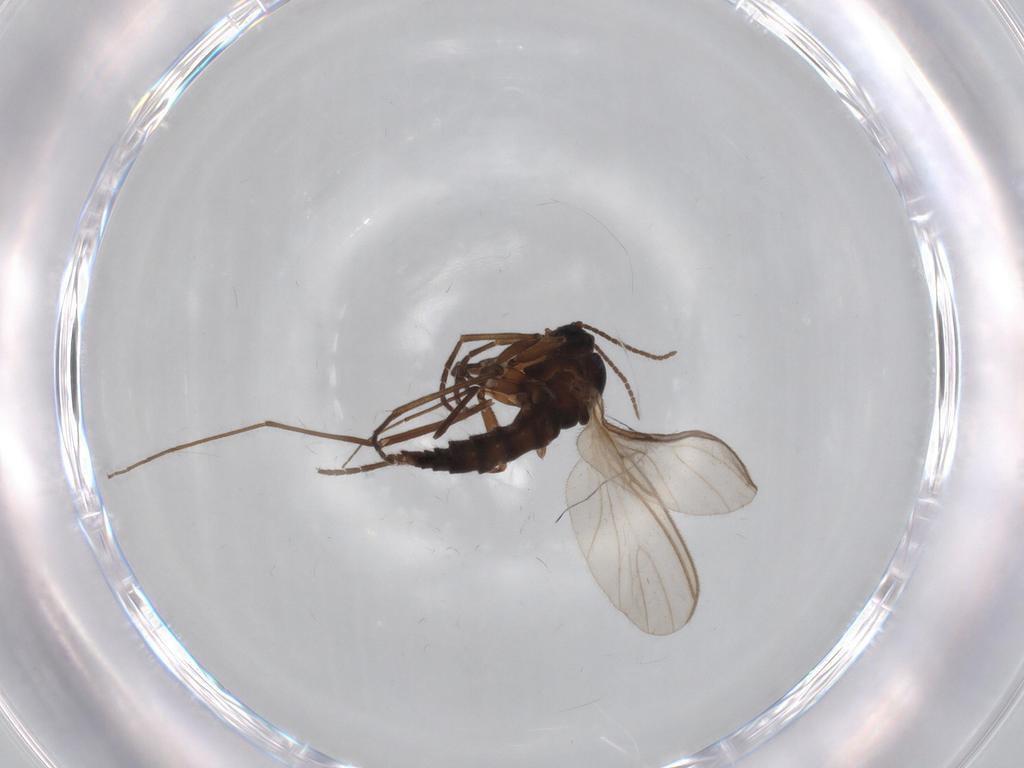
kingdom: Animalia
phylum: Arthropoda
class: Insecta
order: Diptera
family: Sciaridae
